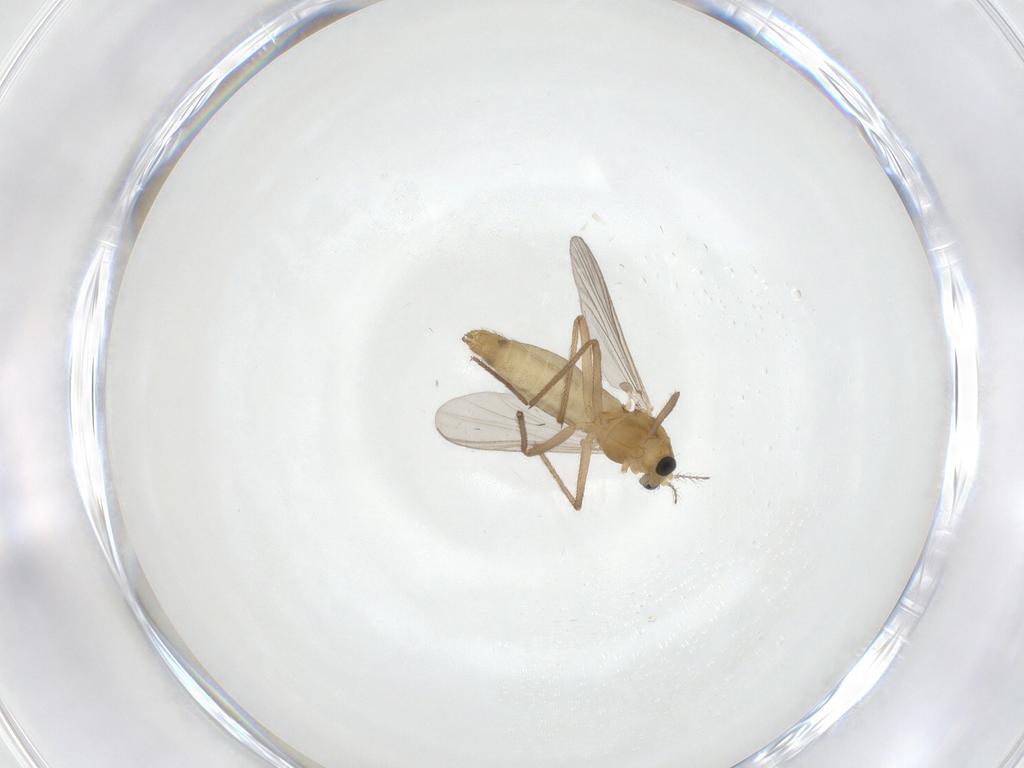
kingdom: Animalia
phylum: Arthropoda
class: Insecta
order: Diptera
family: Chironomidae
